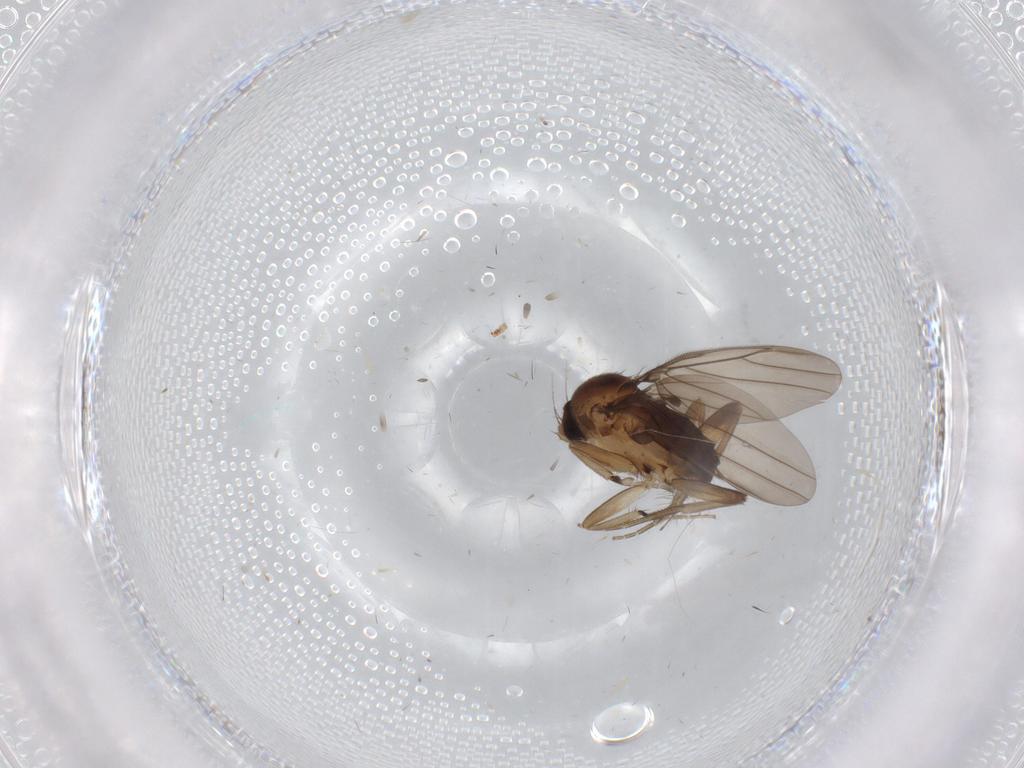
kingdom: Animalia
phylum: Arthropoda
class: Insecta
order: Diptera
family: Phoridae
